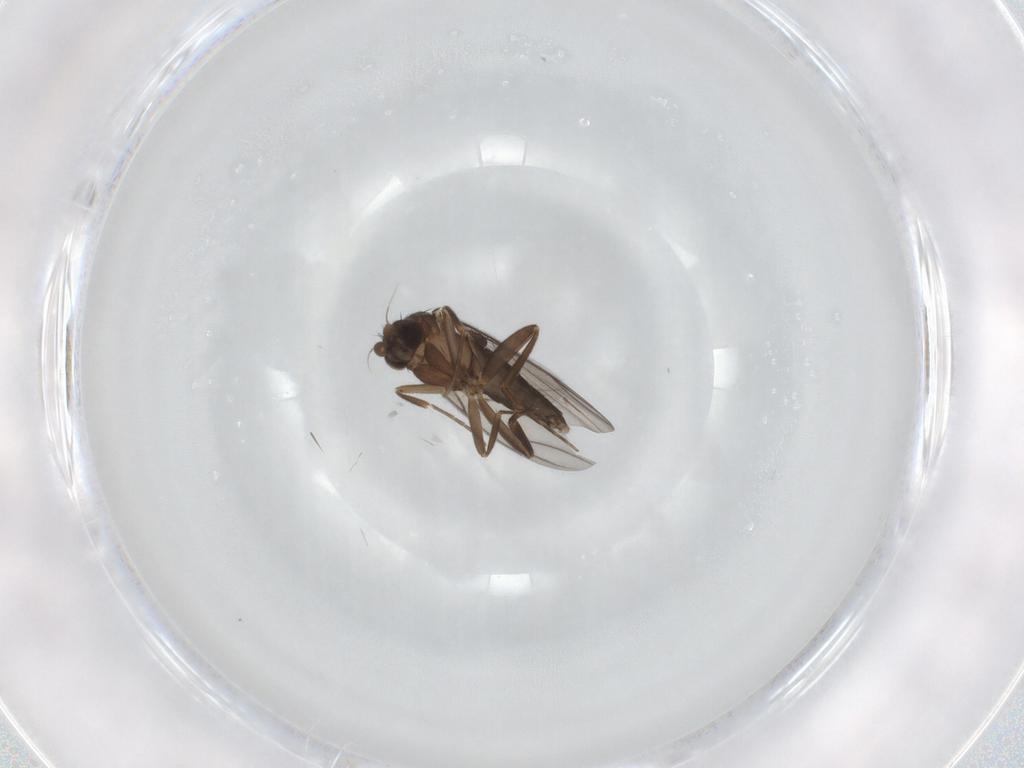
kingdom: Animalia
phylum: Arthropoda
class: Insecta
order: Diptera
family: Phoridae
